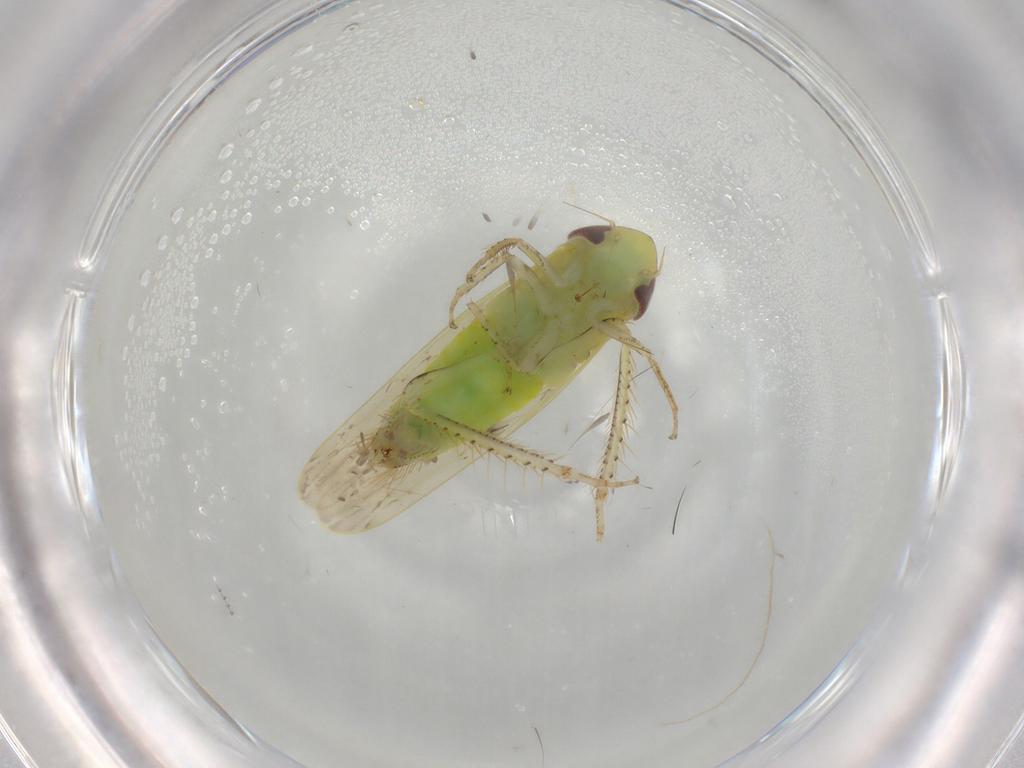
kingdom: Animalia
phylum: Arthropoda
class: Insecta
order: Hemiptera
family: Cicadellidae
